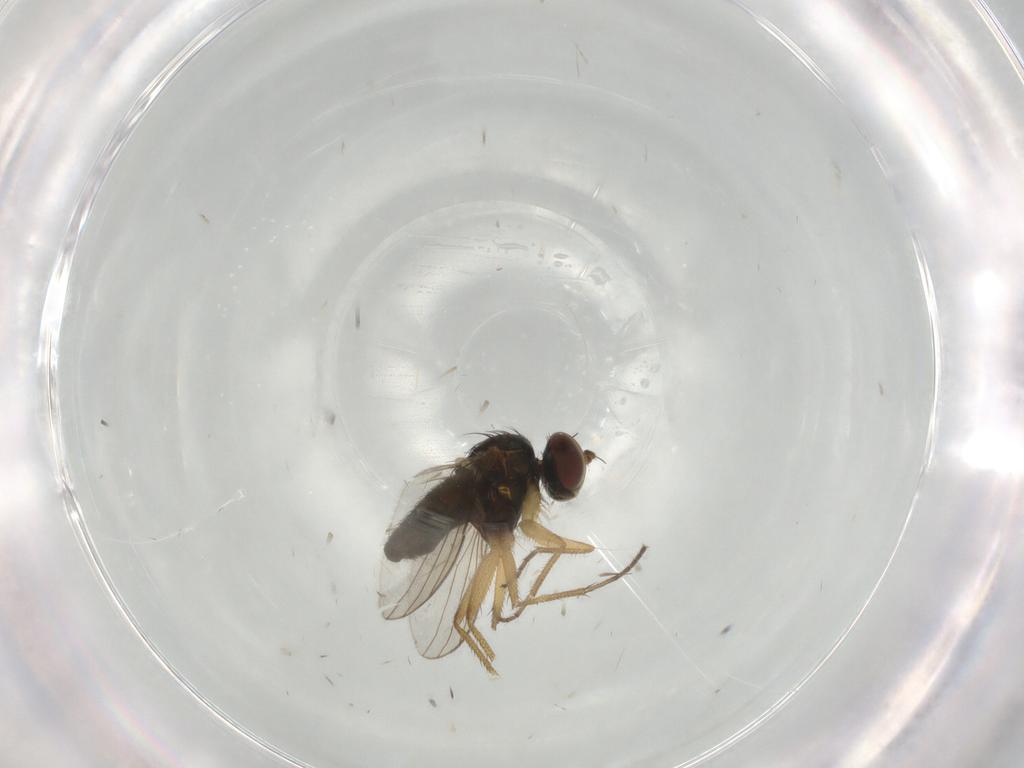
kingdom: Animalia
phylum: Arthropoda
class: Insecta
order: Diptera
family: Dolichopodidae
